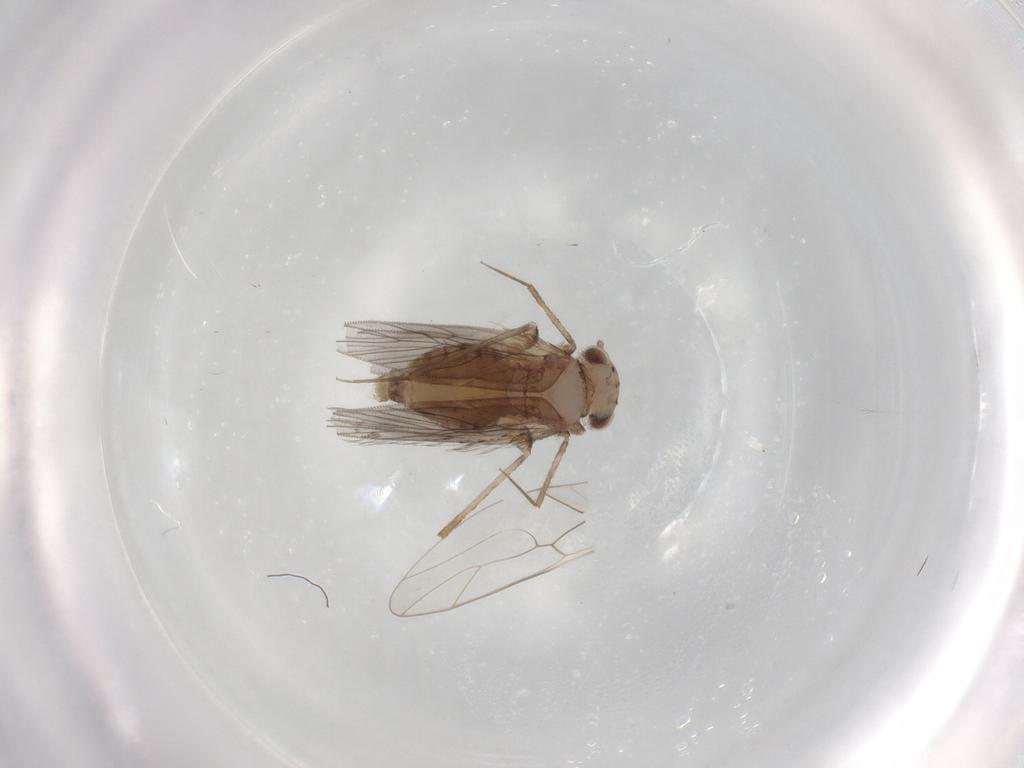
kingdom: Animalia
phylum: Arthropoda
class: Insecta
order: Psocodea
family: Lepidopsocidae
